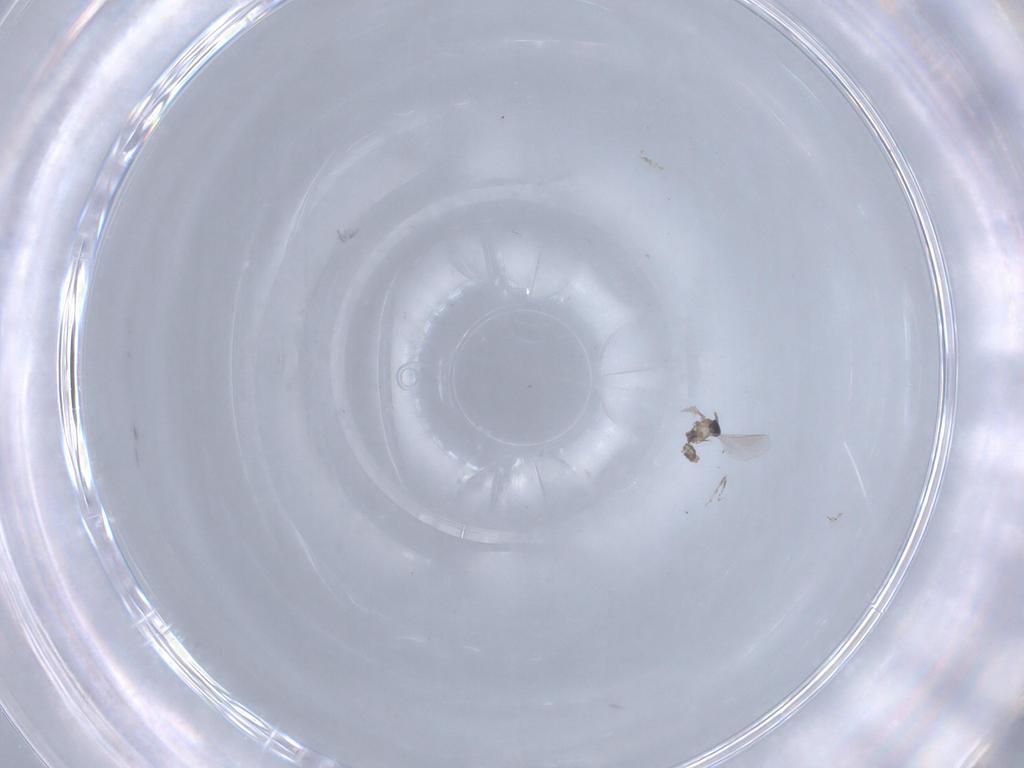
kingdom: Animalia
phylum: Arthropoda
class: Insecta
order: Diptera
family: Cecidomyiidae
